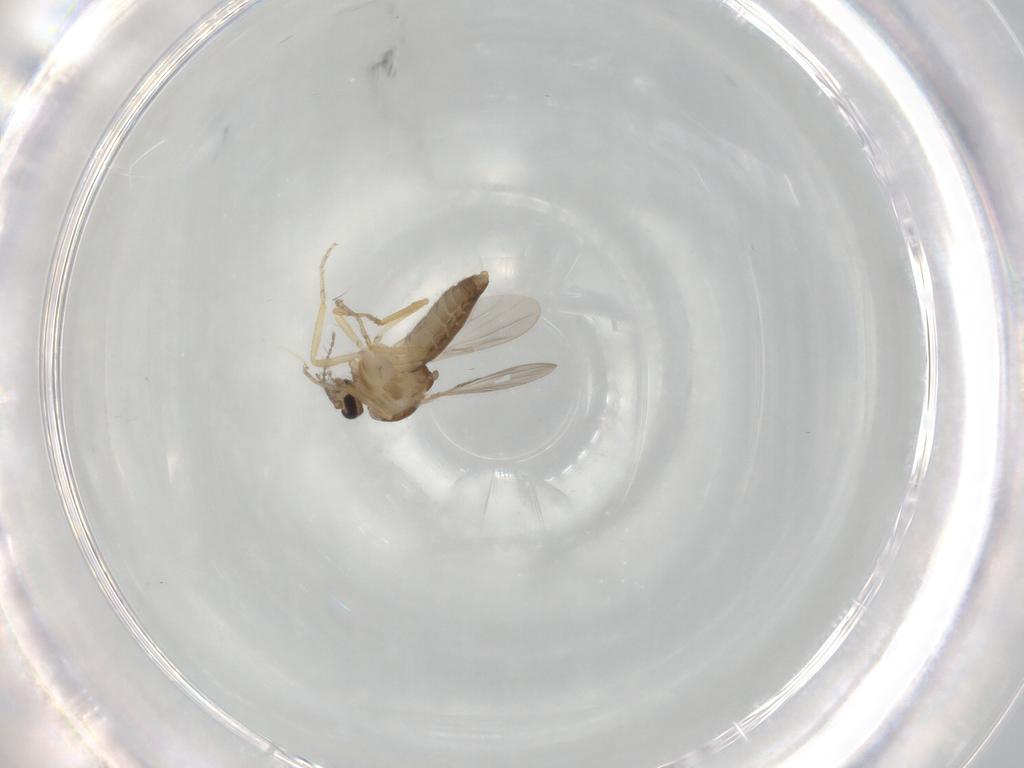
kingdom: Animalia
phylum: Arthropoda
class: Insecta
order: Diptera
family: Ceratopogonidae
